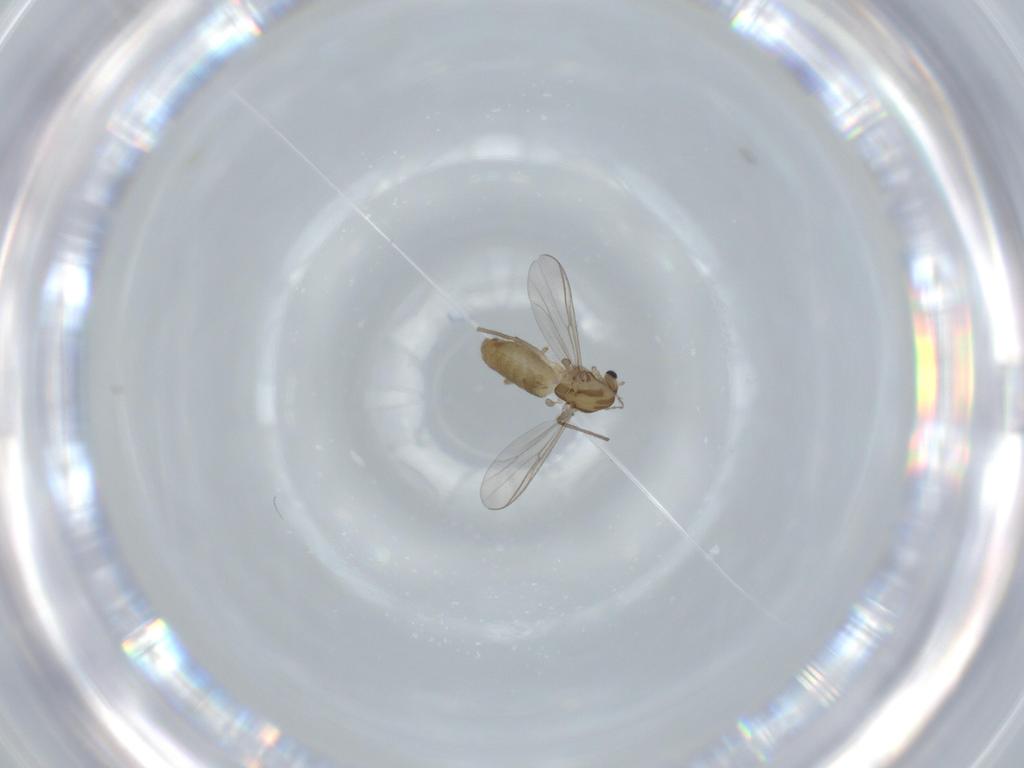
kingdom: Animalia
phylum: Arthropoda
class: Insecta
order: Diptera
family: Chironomidae
